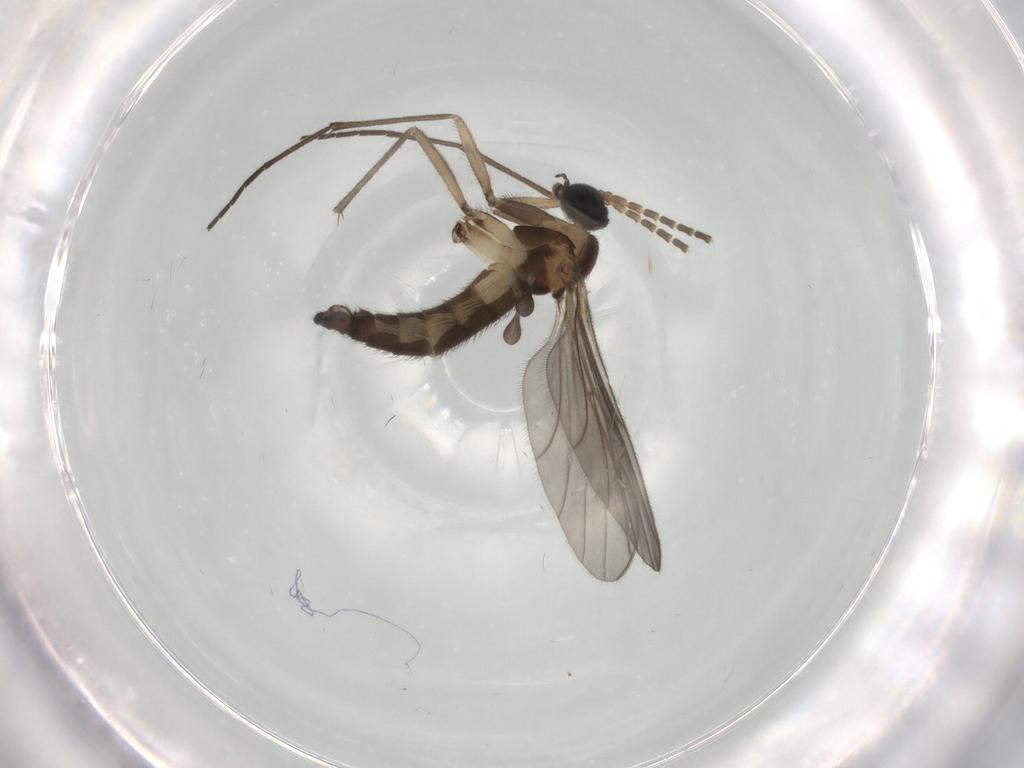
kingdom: Animalia
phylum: Arthropoda
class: Insecta
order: Diptera
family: Sciaridae
